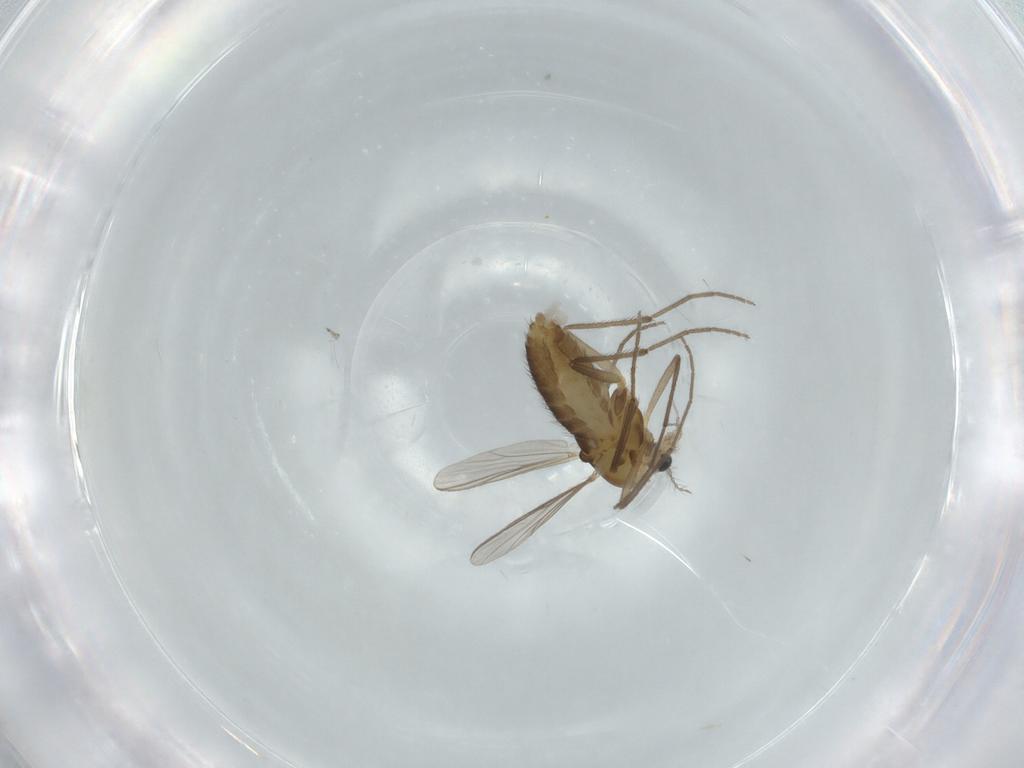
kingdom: Animalia
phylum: Arthropoda
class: Insecta
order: Diptera
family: Chironomidae
